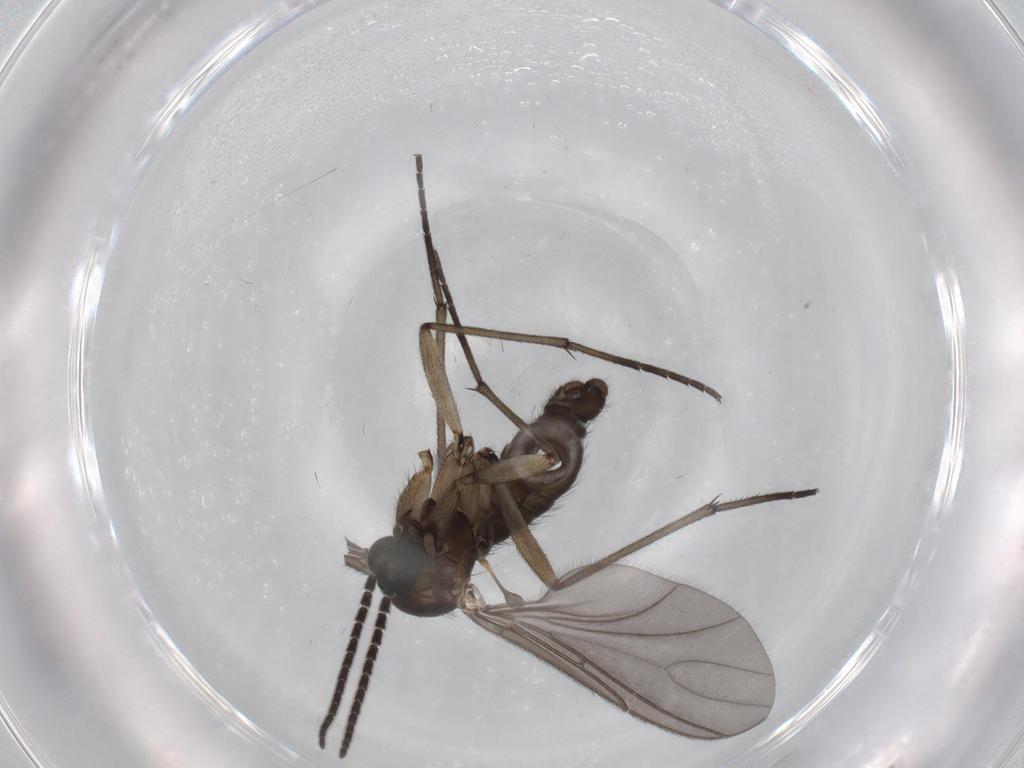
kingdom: Animalia
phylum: Arthropoda
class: Insecta
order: Diptera
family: Sciaridae
